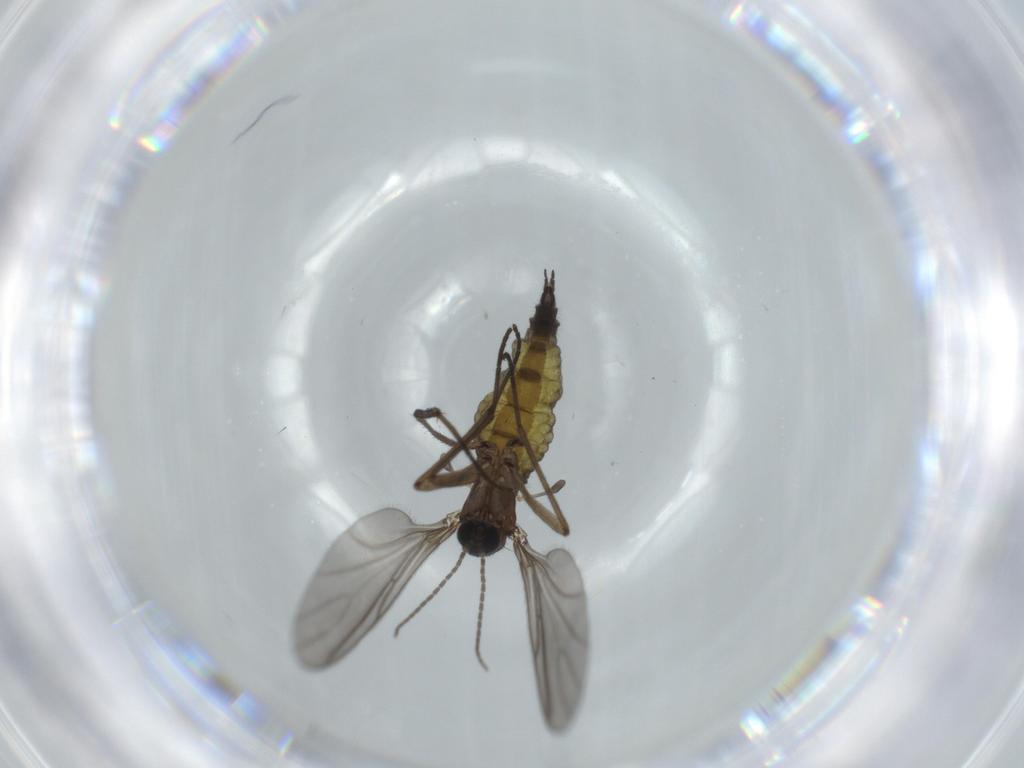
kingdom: Animalia
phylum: Arthropoda
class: Insecta
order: Diptera
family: Sciaridae
